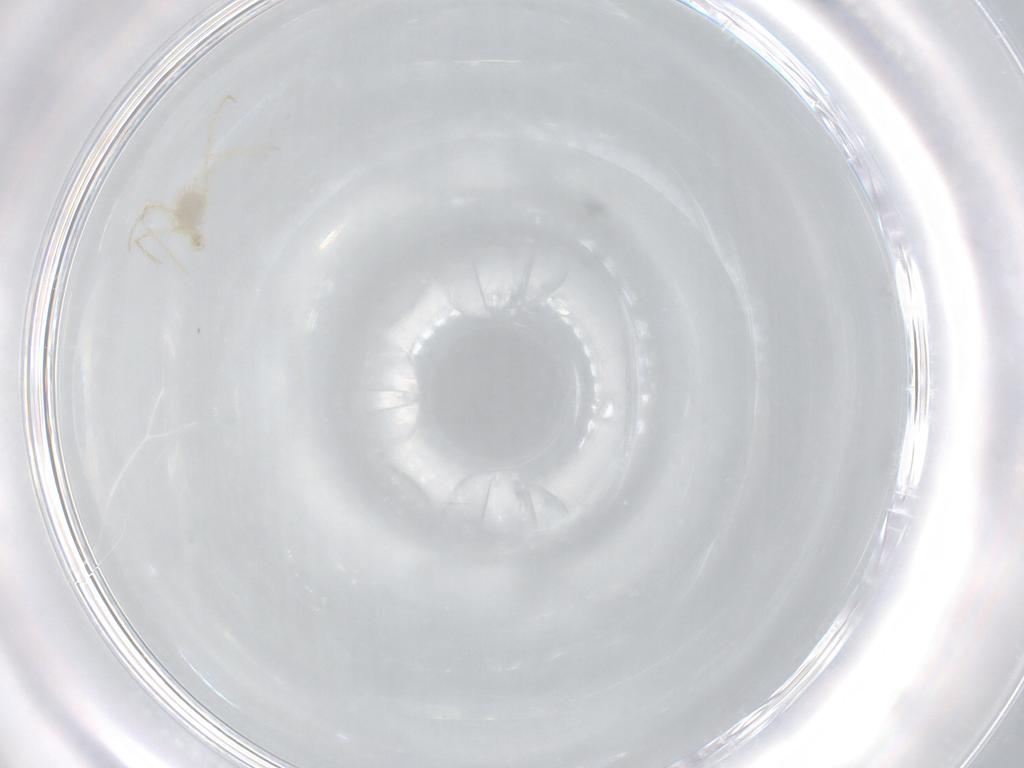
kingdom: Animalia
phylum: Arthropoda
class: Arachnida
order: Trombidiformes
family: Erythraeidae
